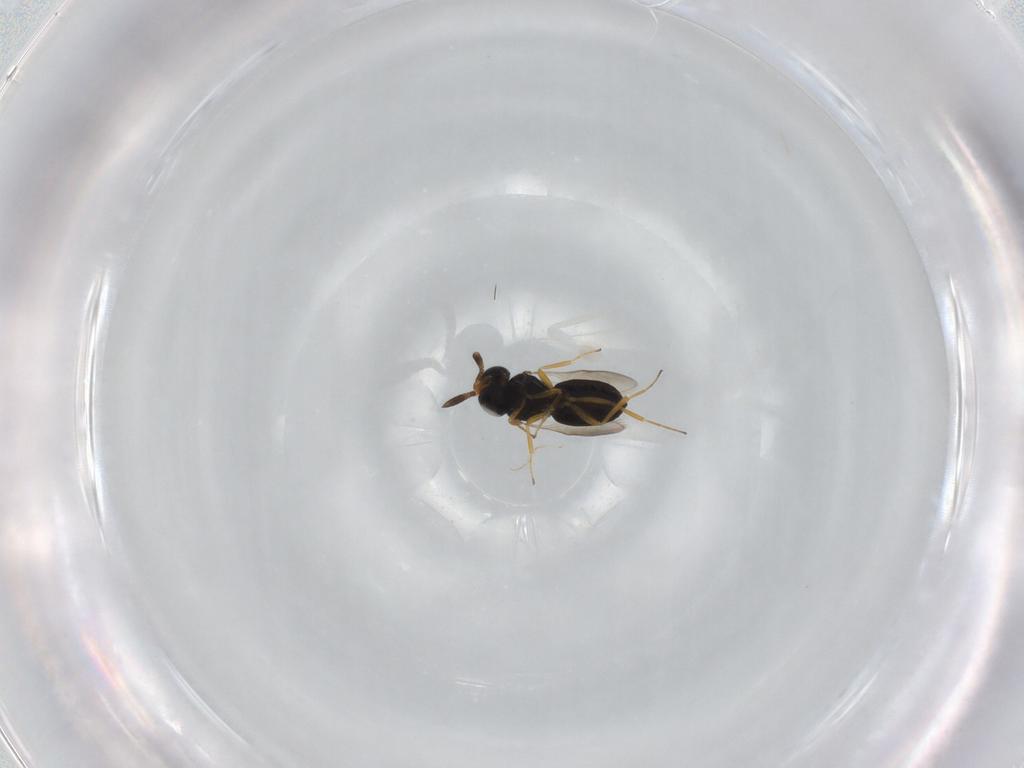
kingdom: Animalia
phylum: Arthropoda
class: Insecta
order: Hymenoptera
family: Scelionidae
